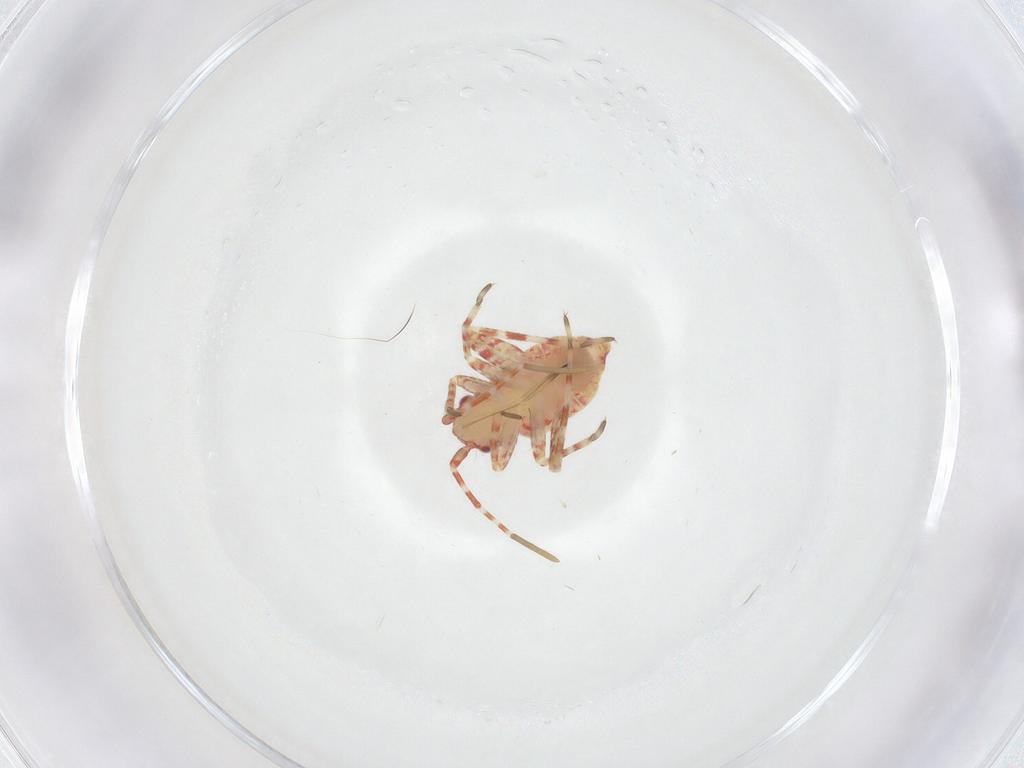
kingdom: Animalia
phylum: Arthropoda
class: Insecta
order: Hemiptera
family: Miridae
